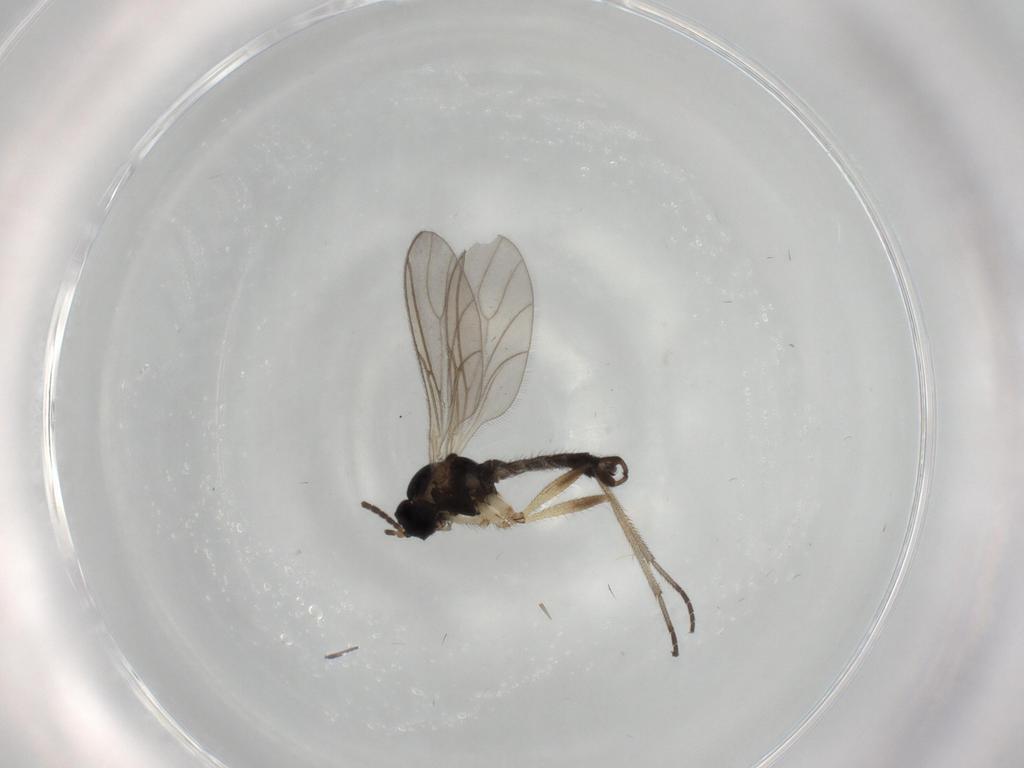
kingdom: Animalia
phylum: Arthropoda
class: Insecta
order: Diptera
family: Sciaridae
